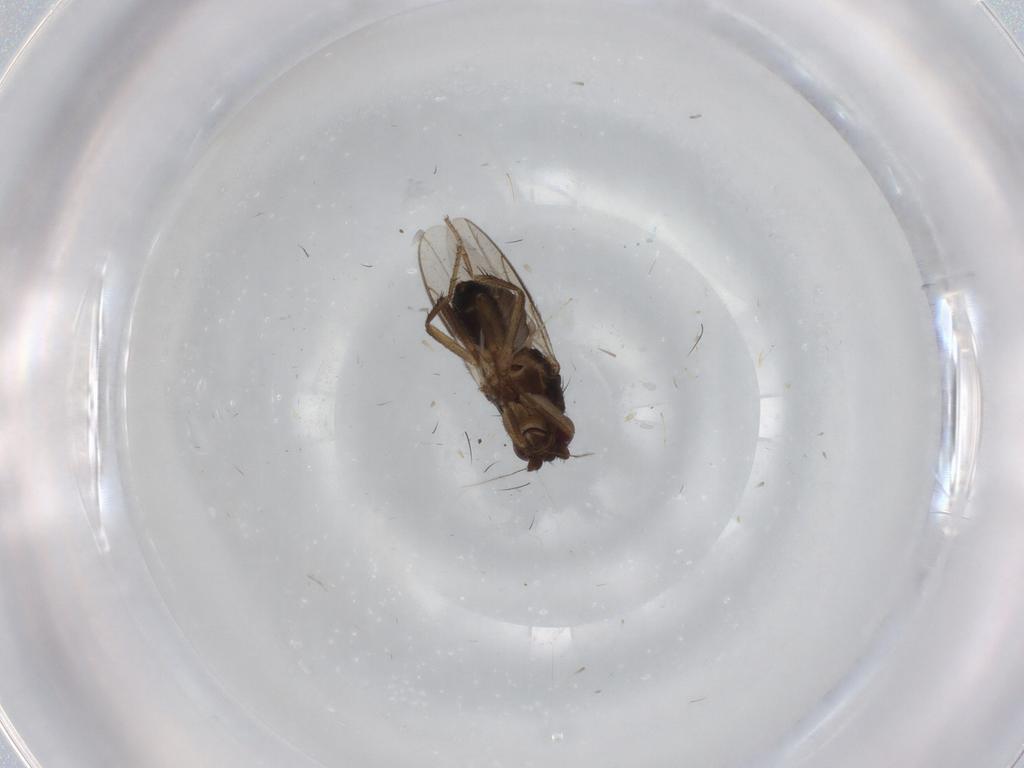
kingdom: Animalia
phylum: Arthropoda
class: Insecta
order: Diptera
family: Sphaeroceridae
